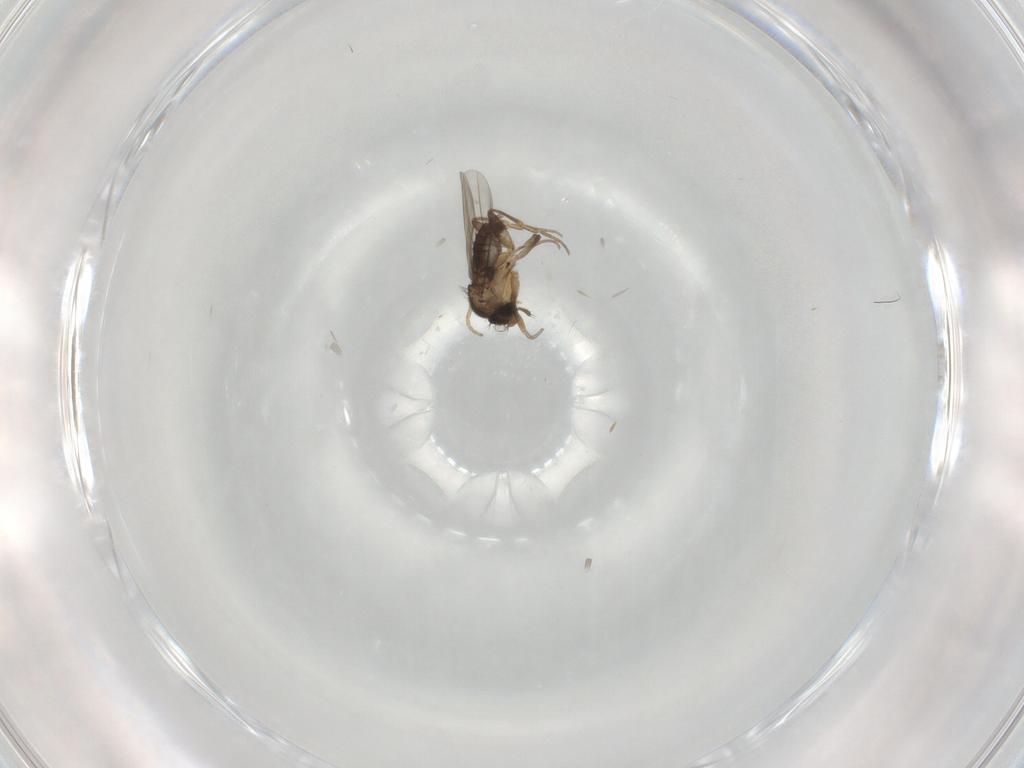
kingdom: Animalia
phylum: Arthropoda
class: Insecta
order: Diptera
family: Phoridae
